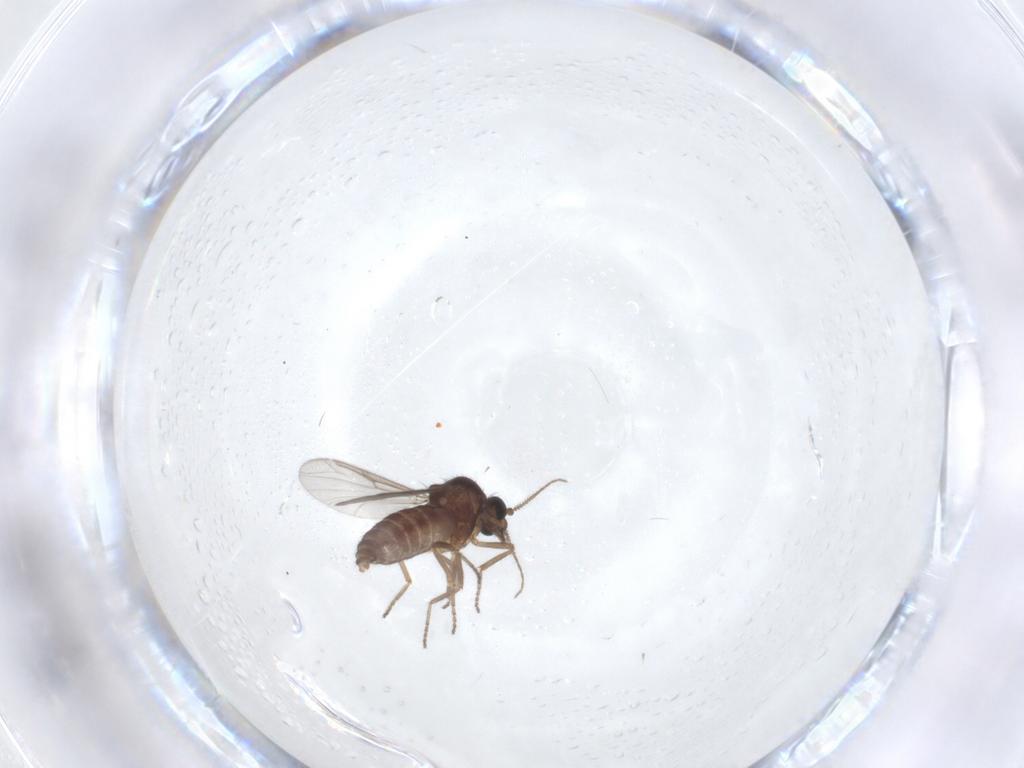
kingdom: Animalia
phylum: Arthropoda
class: Insecta
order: Diptera
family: Ceratopogonidae
